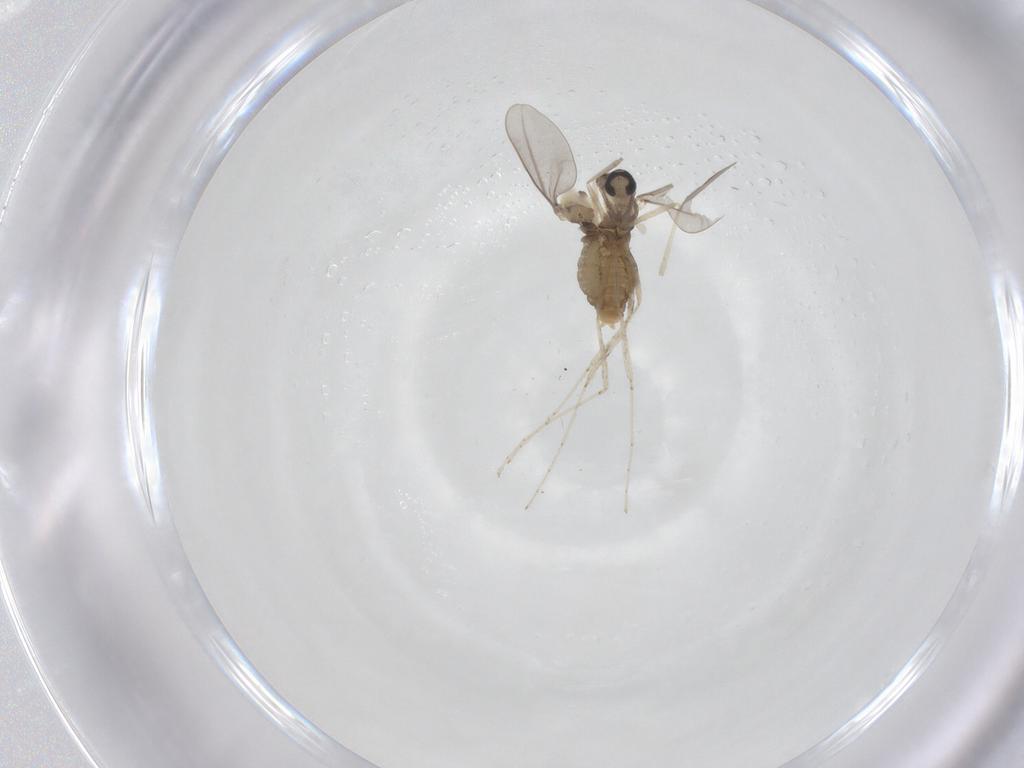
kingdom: Animalia
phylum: Arthropoda
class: Insecta
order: Diptera
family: Cecidomyiidae
